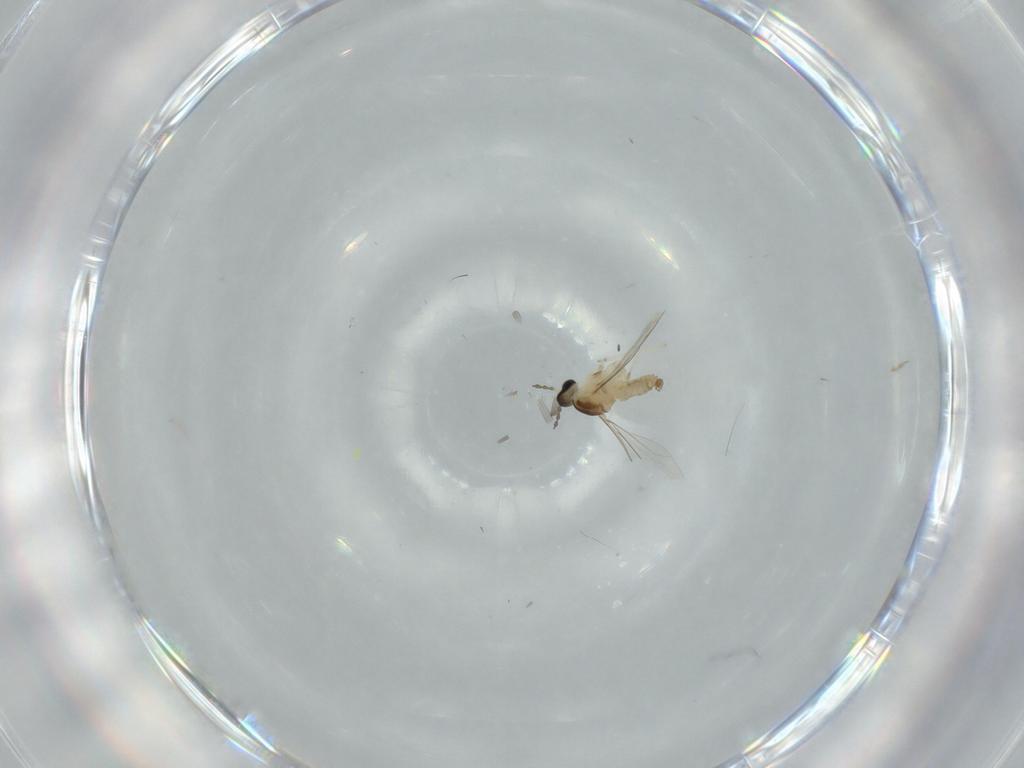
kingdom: Animalia
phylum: Arthropoda
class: Insecta
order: Diptera
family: Cecidomyiidae
